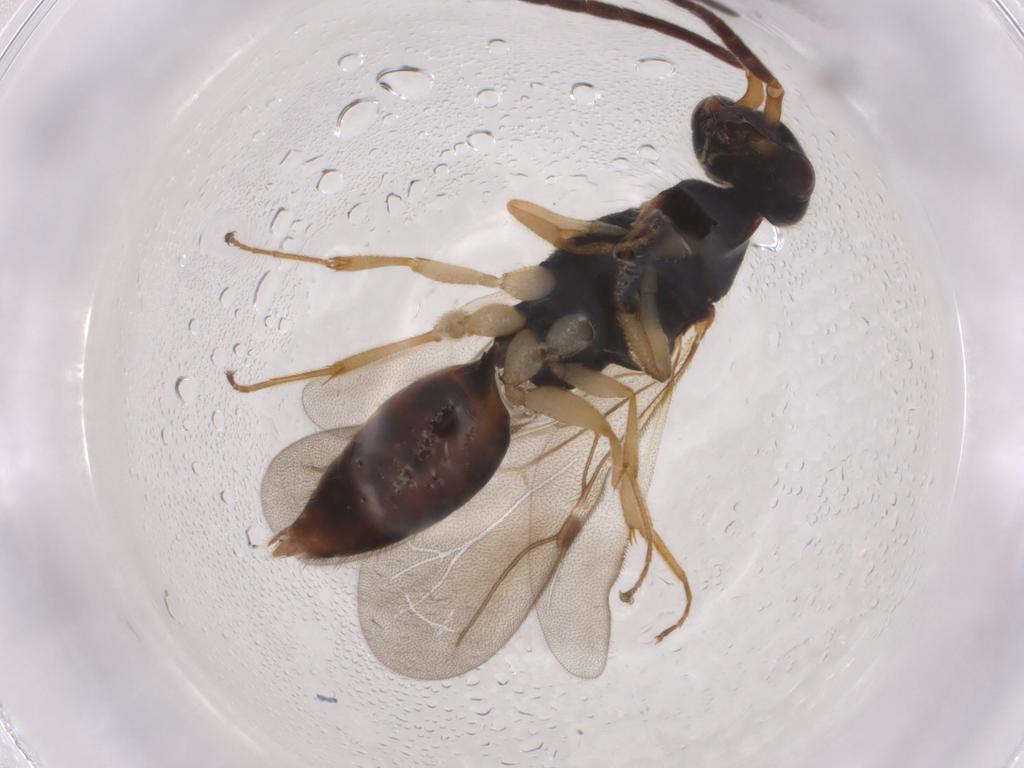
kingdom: Animalia
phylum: Arthropoda
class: Insecta
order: Hymenoptera
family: Bethylidae
